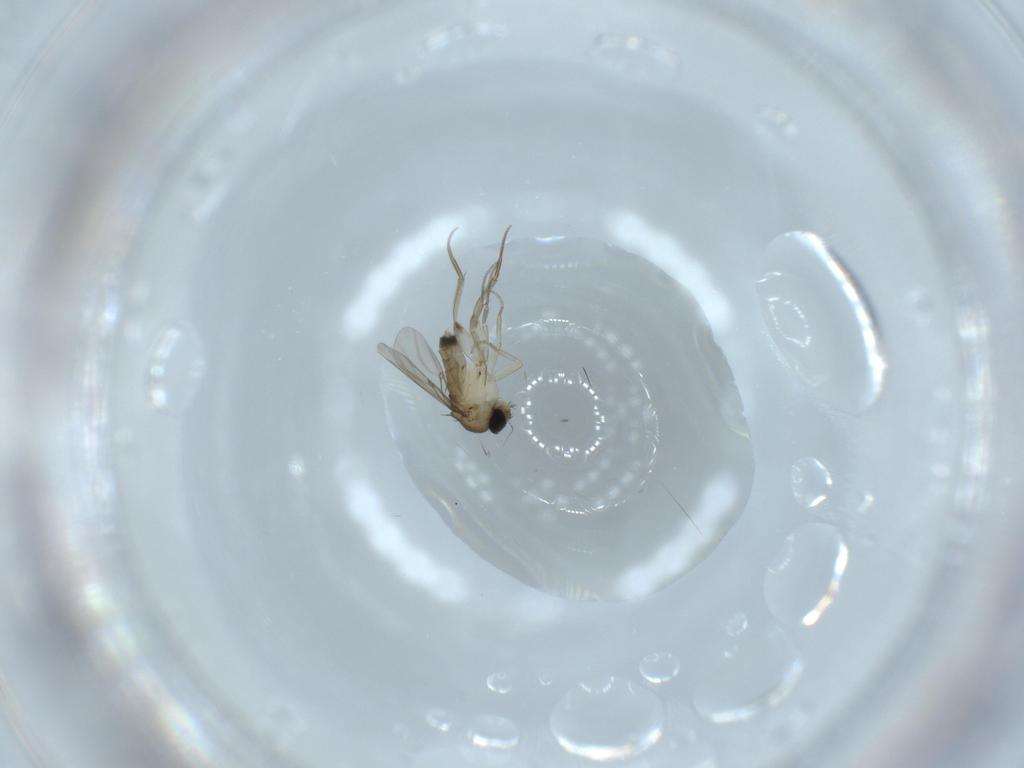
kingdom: Animalia
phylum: Arthropoda
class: Insecta
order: Diptera
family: Phoridae
